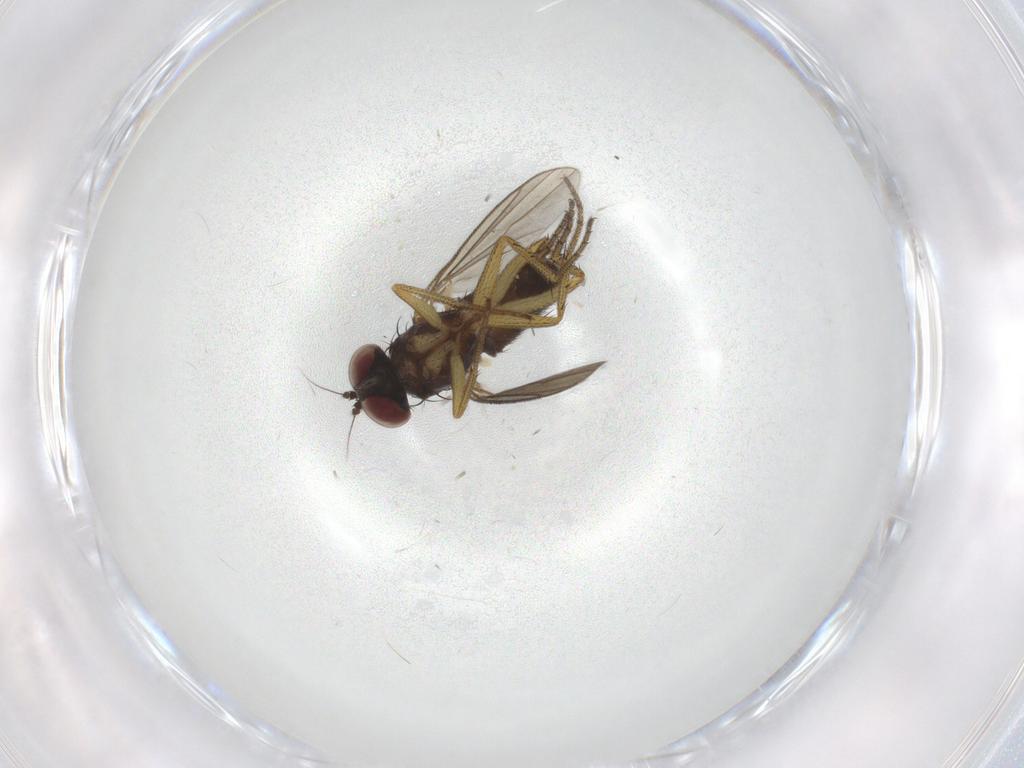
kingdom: Animalia
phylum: Arthropoda
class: Insecta
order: Diptera
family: Dolichopodidae
